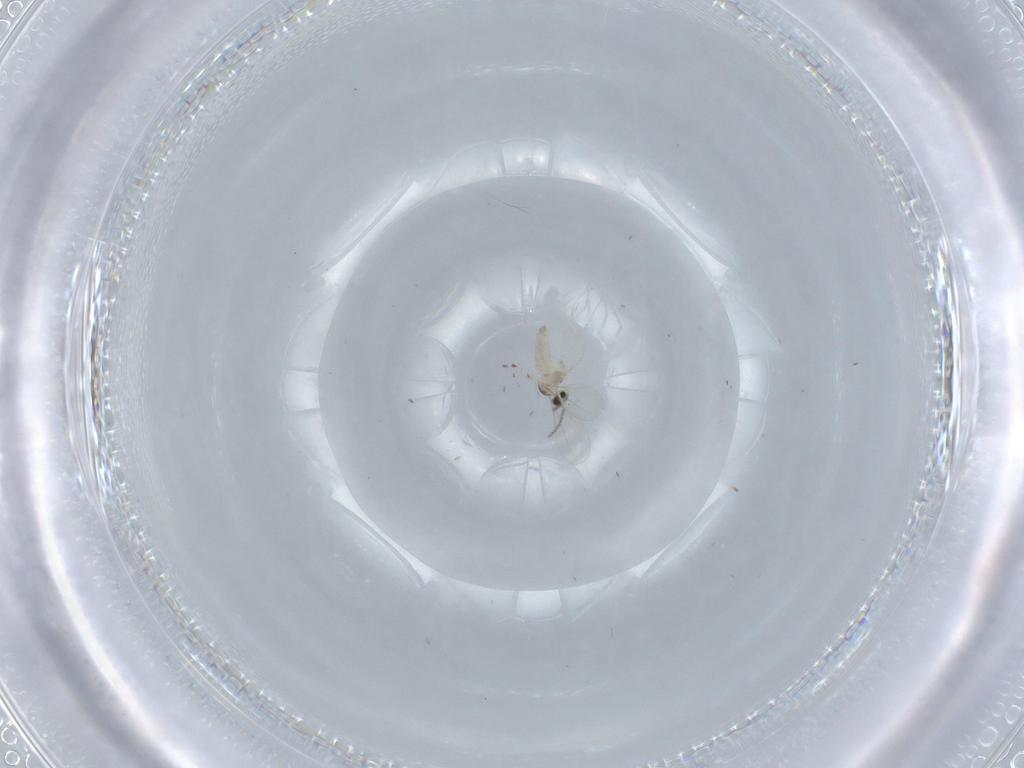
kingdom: Animalia
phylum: Arthropoda
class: Insecta
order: Diptera
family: Cecidomyiidae
